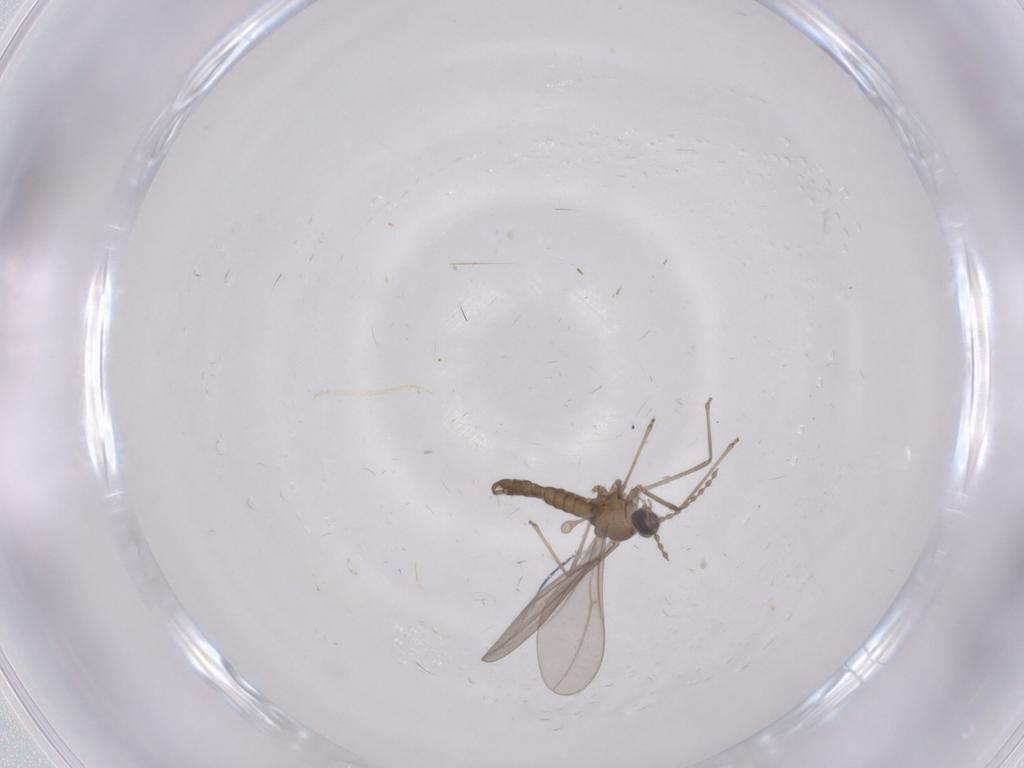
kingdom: Animalia
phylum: Arthropoda
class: Insecta
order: Diptera
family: Cecidomyiidae
